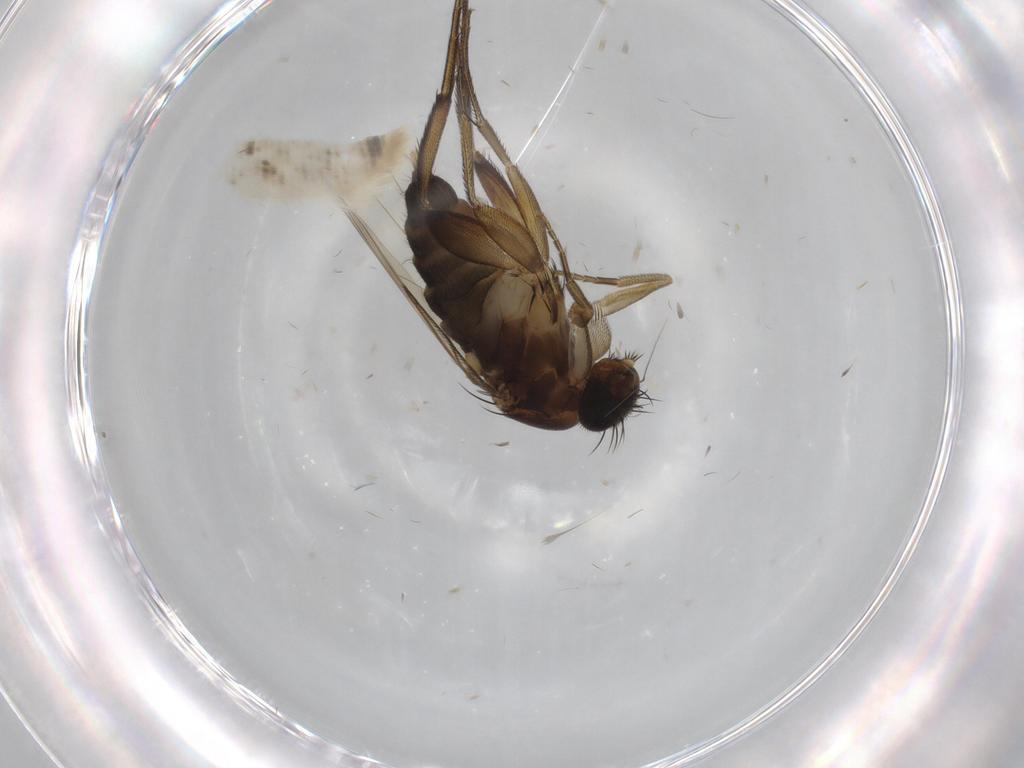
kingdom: Animalia
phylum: Arthropoda
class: Insecta
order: Diptera
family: Phoridae
